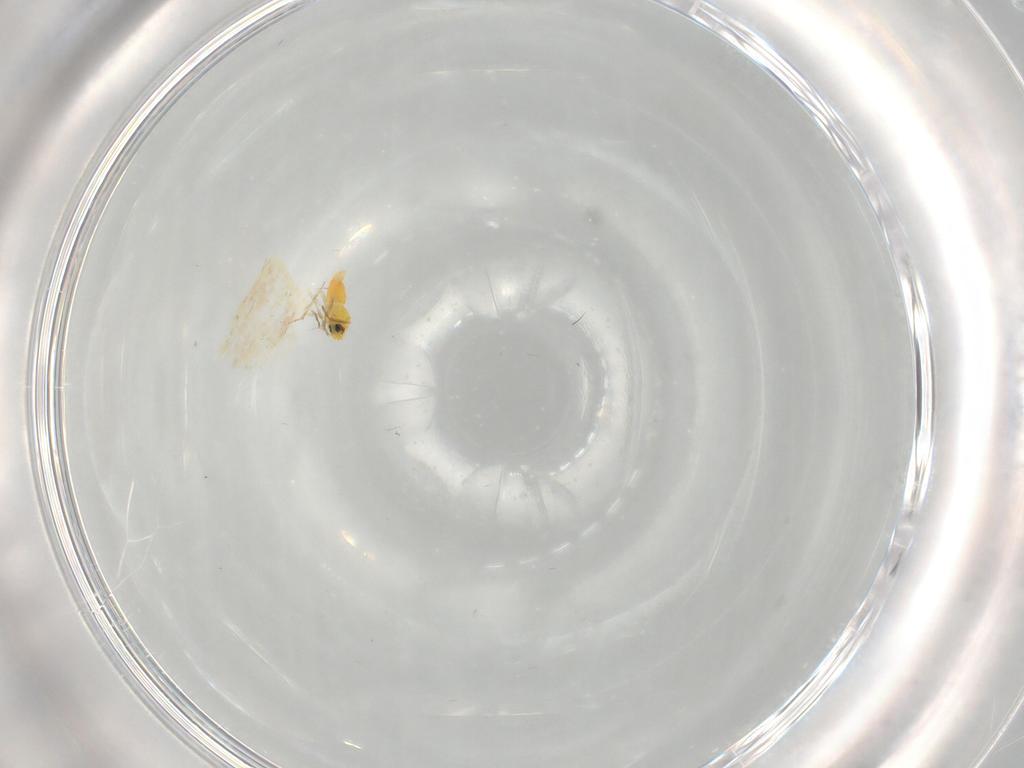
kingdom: Animalia
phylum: Arthropoda
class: Insecta
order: Hemiptera
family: Aleyrodidae
